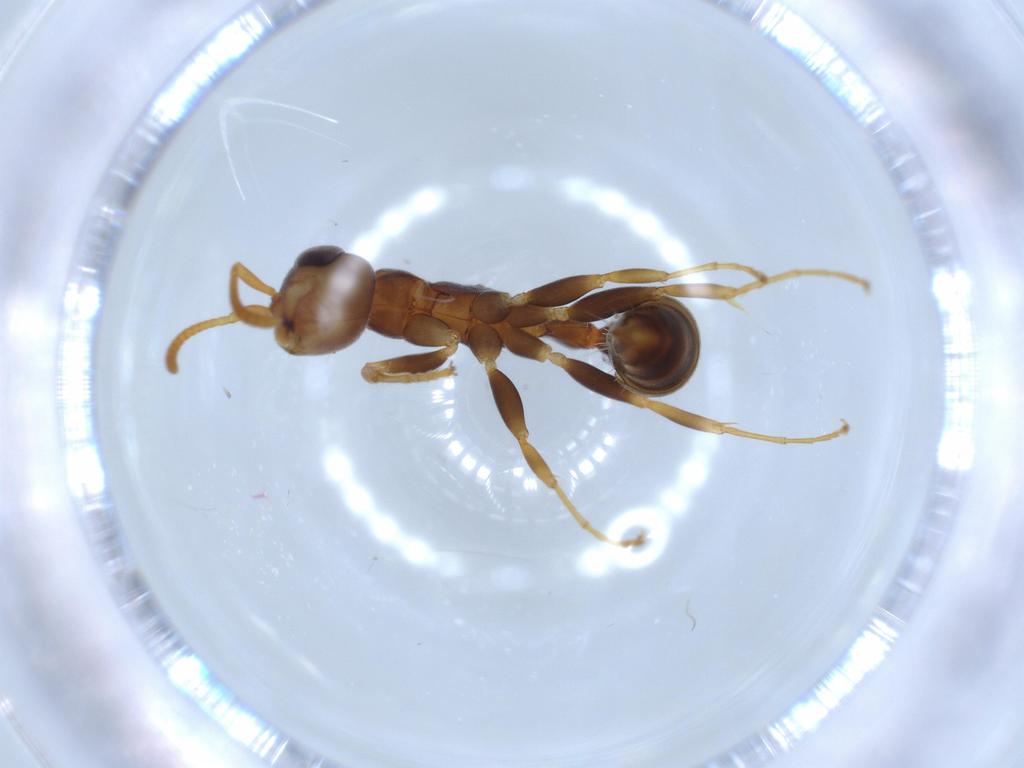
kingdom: Animalia
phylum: Arthropoda
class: Insecta
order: Hymenoptera
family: Formicidae
